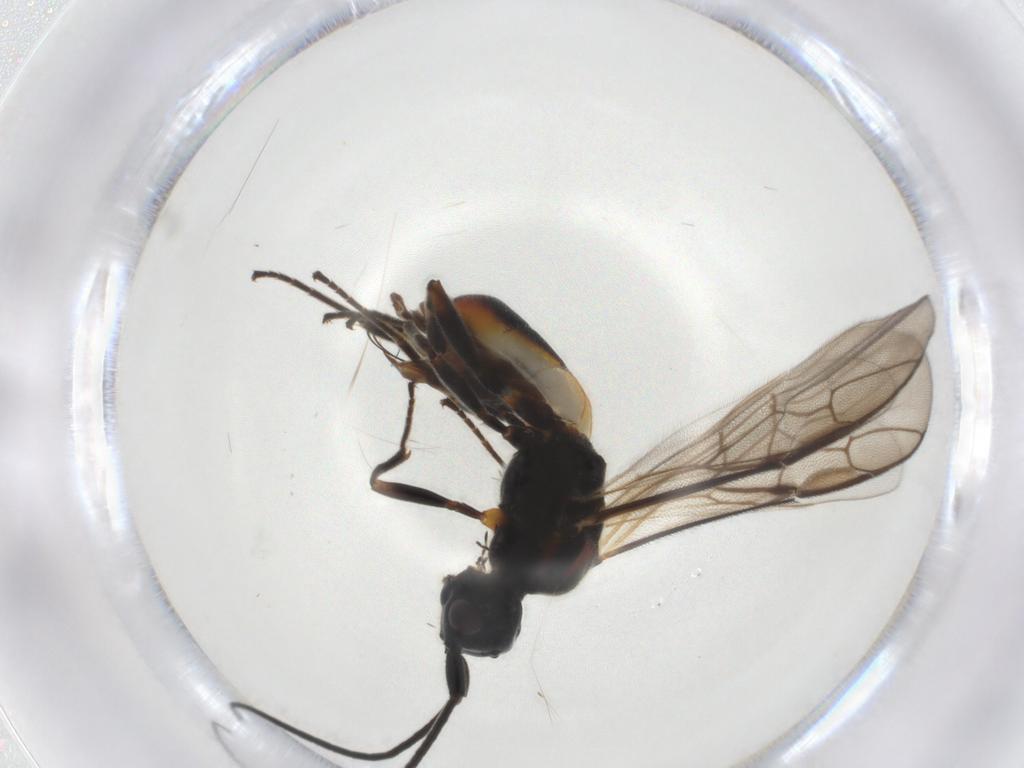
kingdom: Animalia
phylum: Arthropoda
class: Insecta
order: Hymenoptera
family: Braconidae
